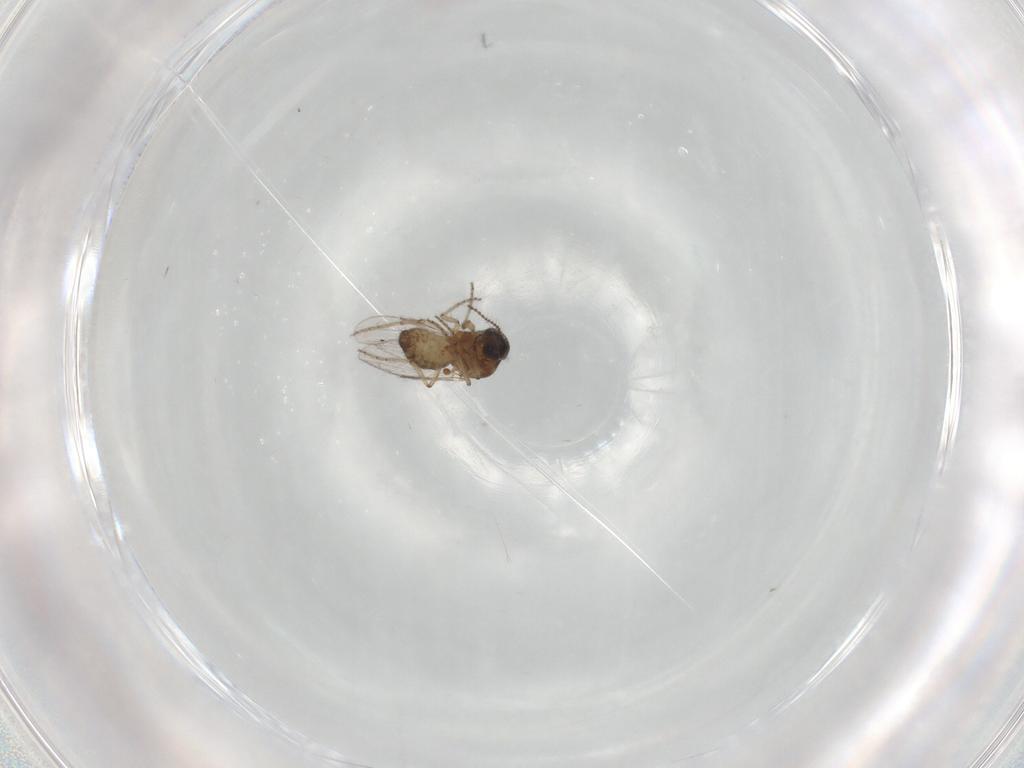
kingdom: Animalia
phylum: Arthropoda
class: Insecta
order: Diptera
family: Ceratopogonidae
